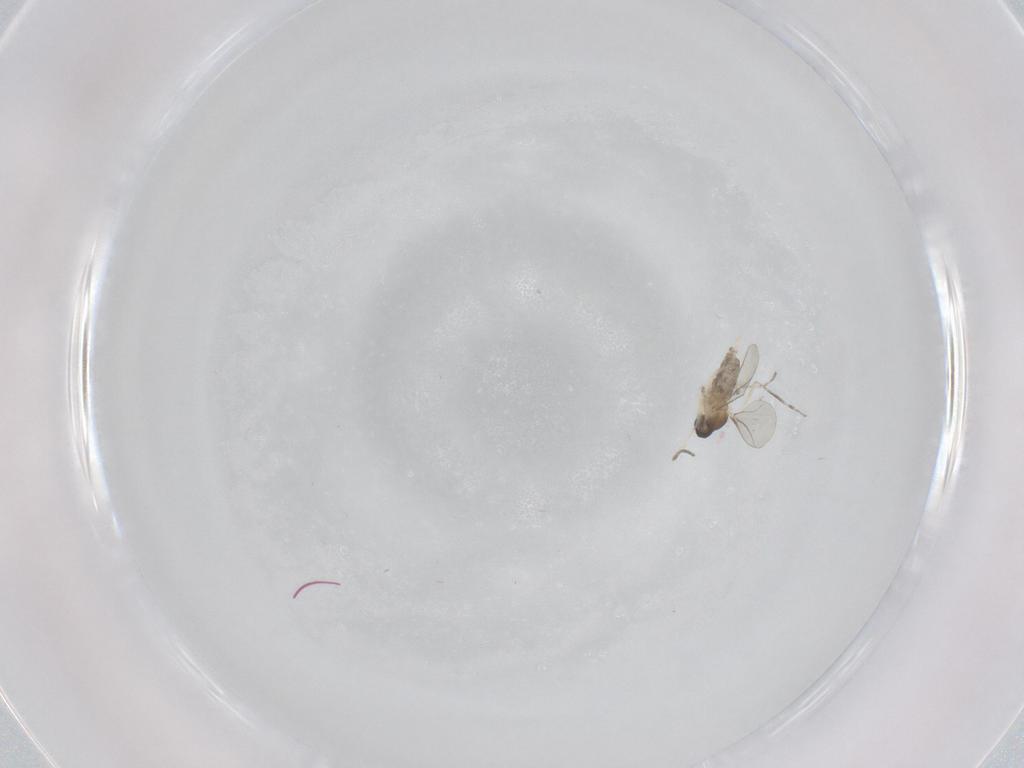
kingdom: Animalia
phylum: Arthropoda
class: Insecta
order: Diptera
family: Cecidomyiidae
